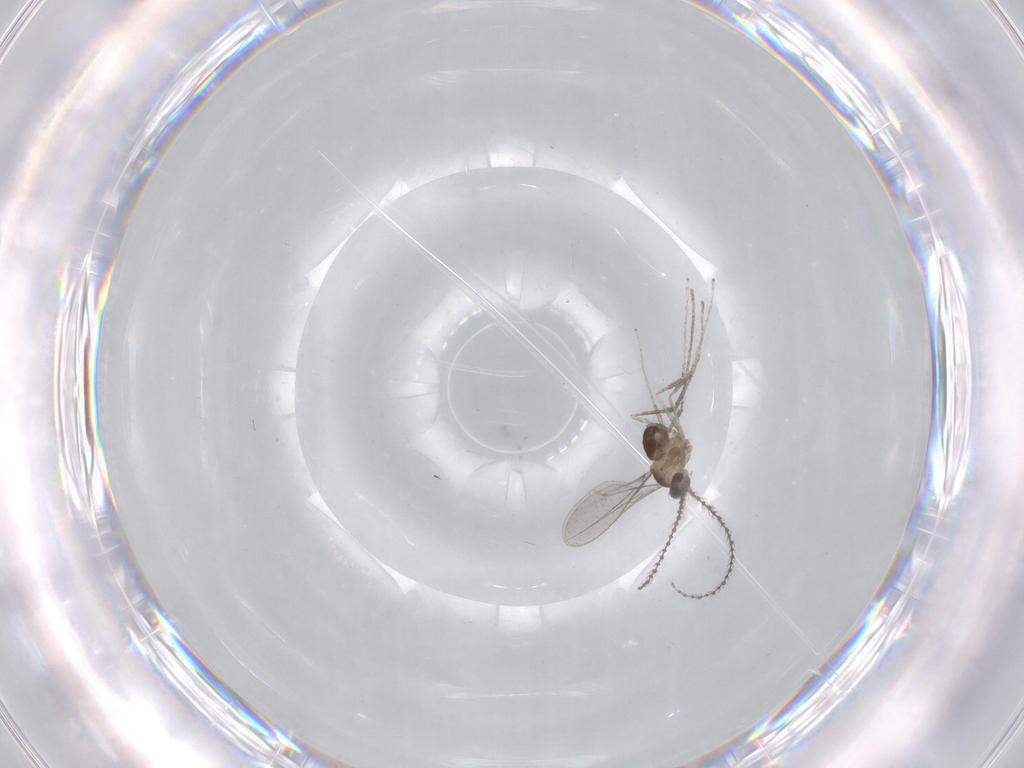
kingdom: Animalia
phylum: Arthropoda
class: Insecta
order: Diptera
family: Cecidomyiidae
